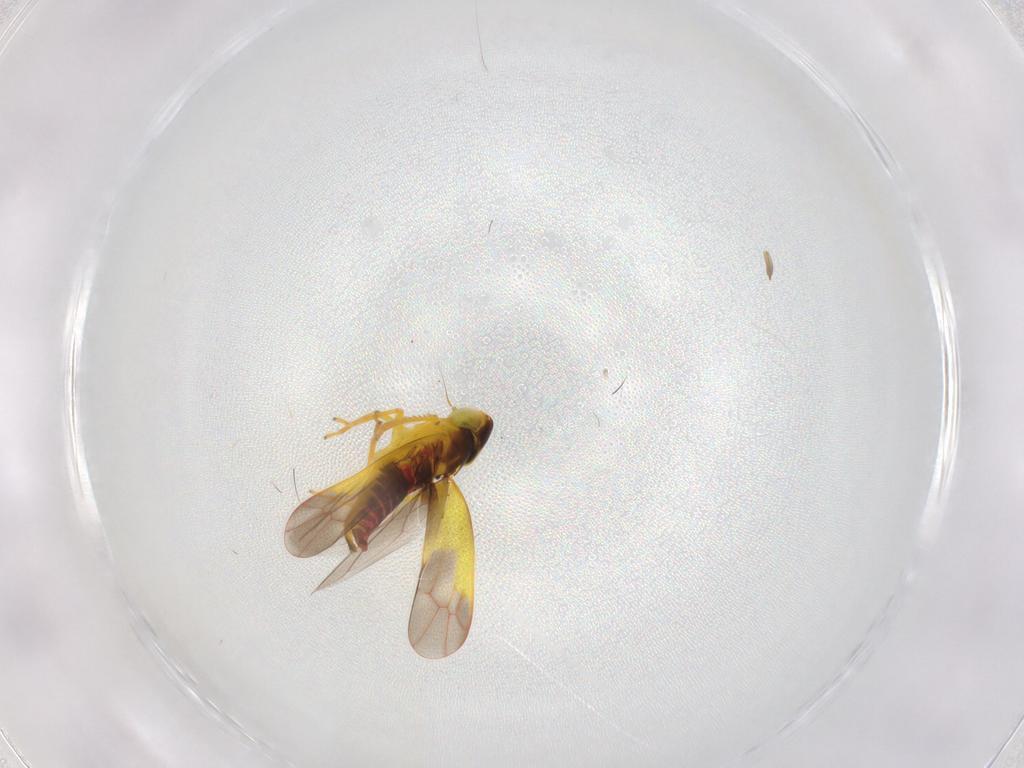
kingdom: Animalia
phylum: Arthropoda
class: Insecta
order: Hemiptera
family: Cicadellidae
